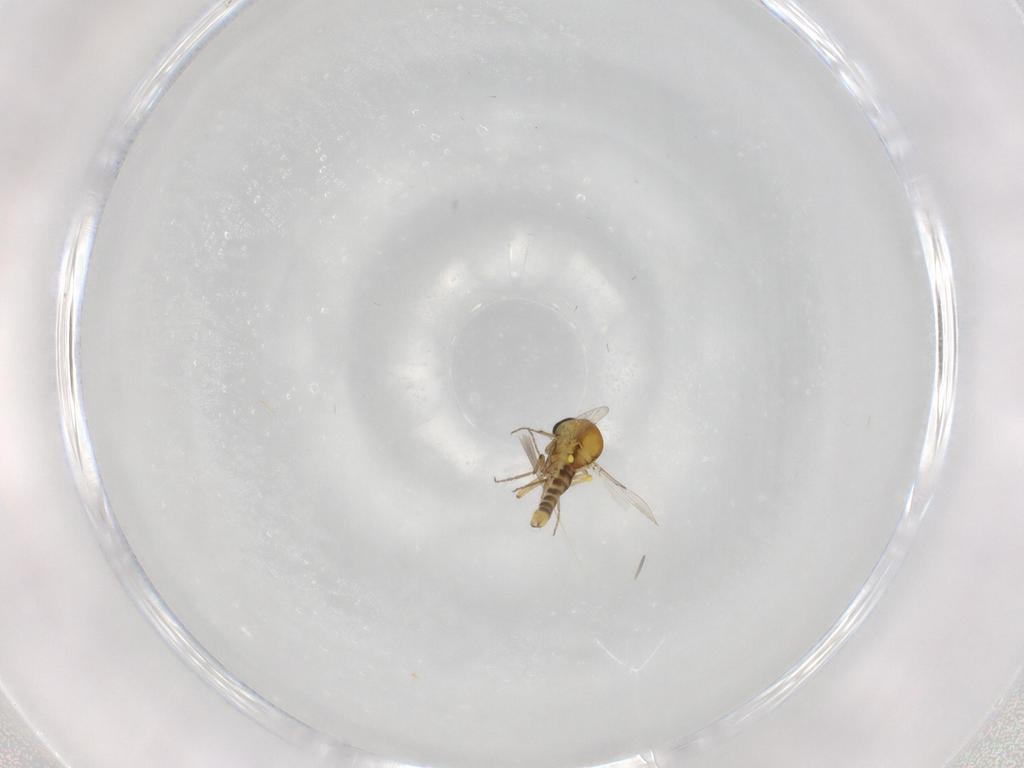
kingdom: Animalia
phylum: Arthropoda
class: Insecta
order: Diptera
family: Ceratopogonidae
